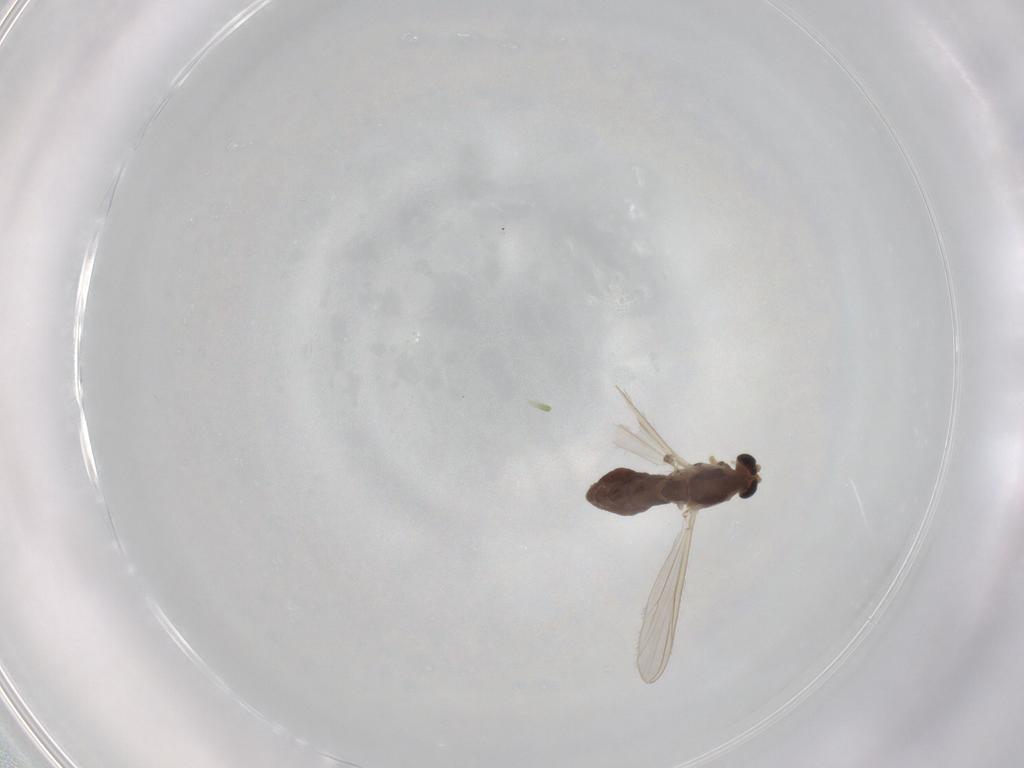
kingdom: Animalia
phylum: Arthropoda
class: Insecta
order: Diptera
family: Chironomidae
